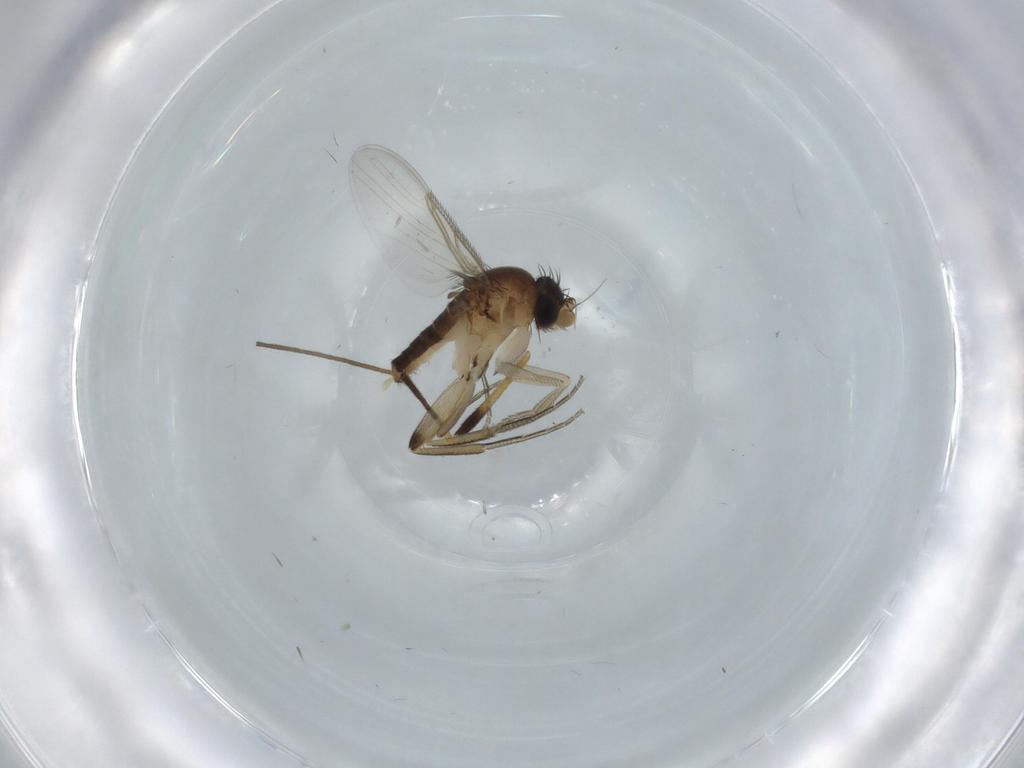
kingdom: Animalia
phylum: Arthropoda
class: Insecta
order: Diptera
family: Phoridae
